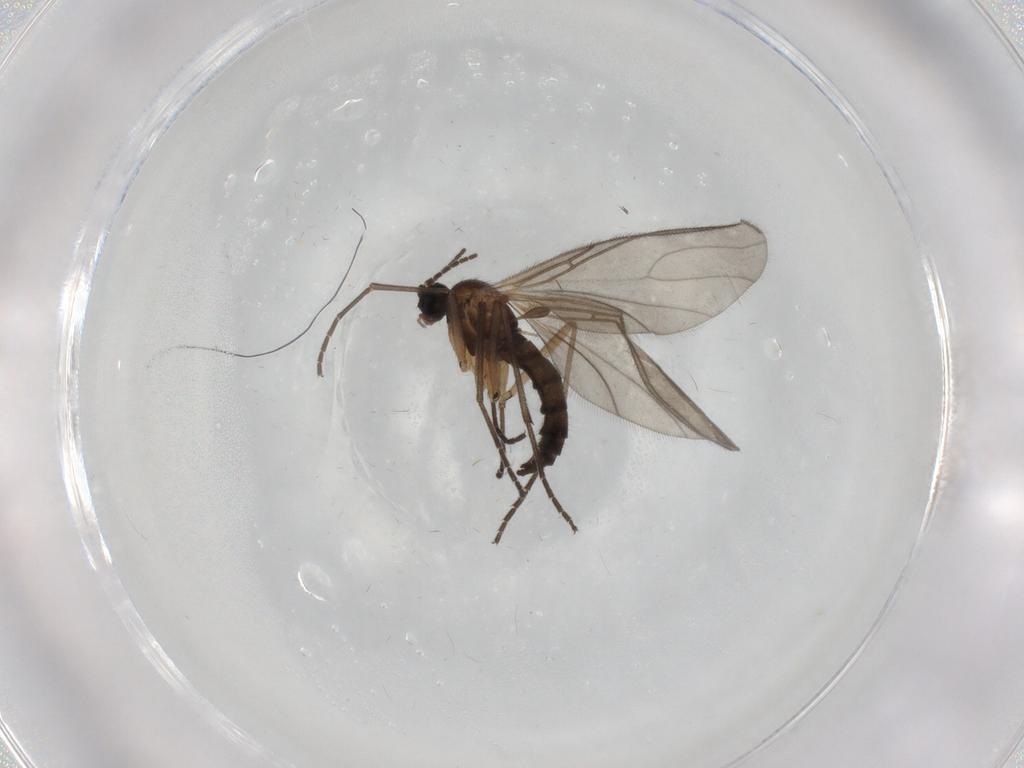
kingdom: Animalia
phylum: Arthropoda
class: Insecta
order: Diptera
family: Sciaridae
